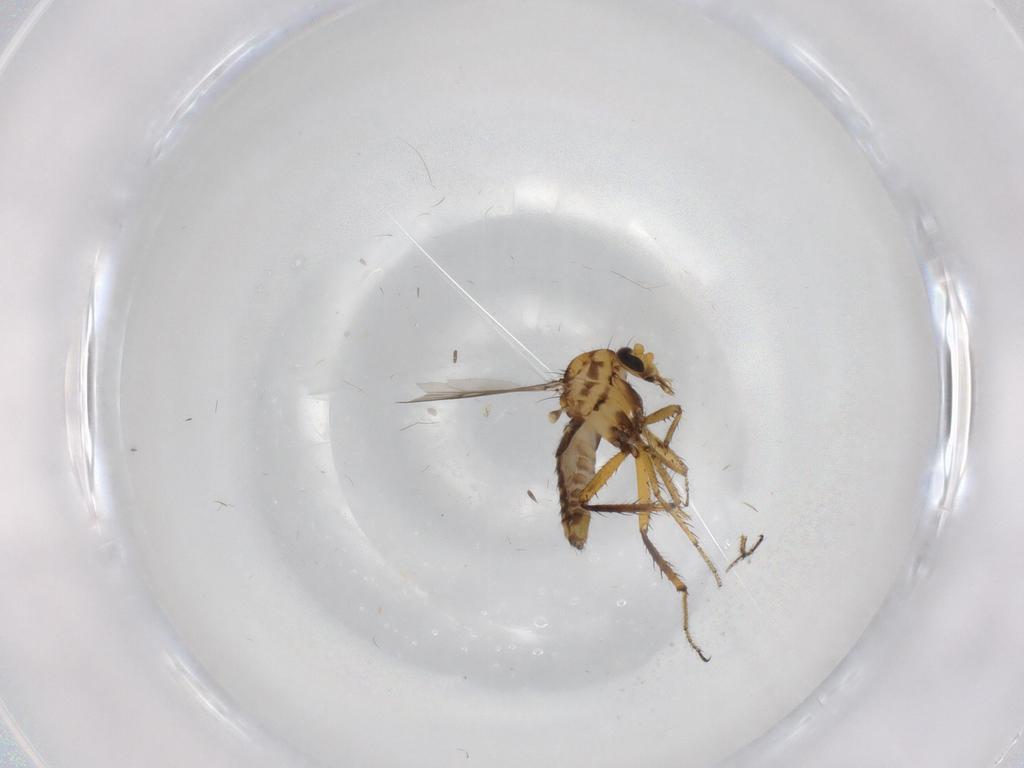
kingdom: Animalia
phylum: Arthropoda
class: Insecta
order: Diptera
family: Ceratopogonidae
